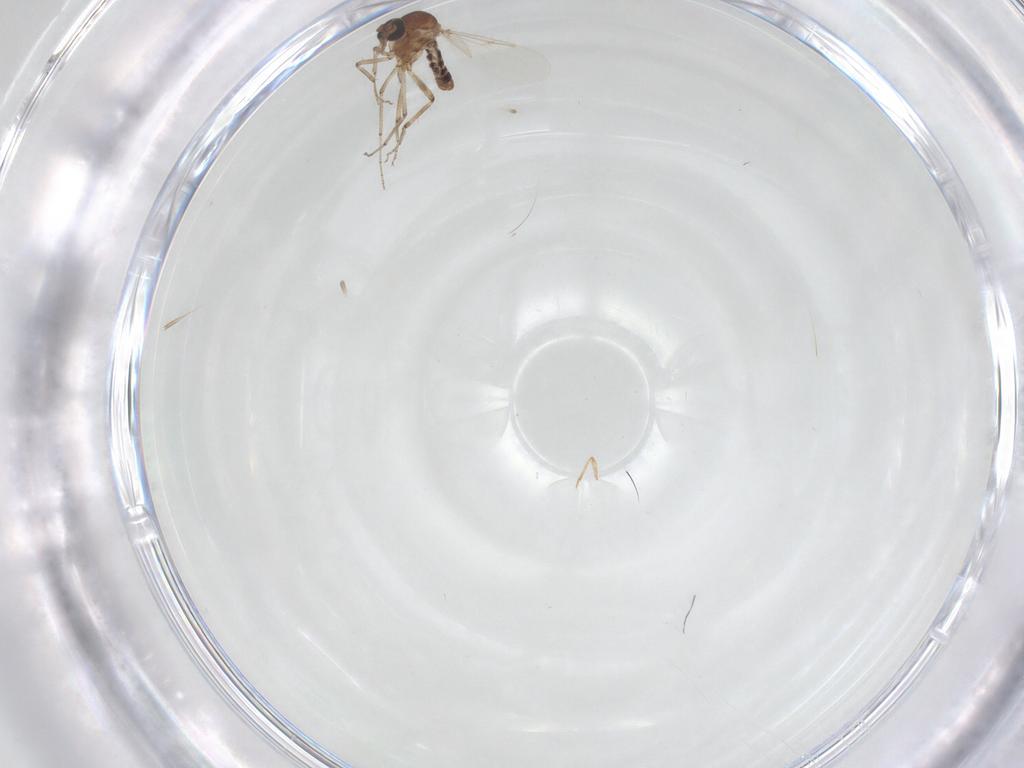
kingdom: Animalia
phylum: Arthropoda
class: Insecta
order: Diptera
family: Ceratopogonidae
